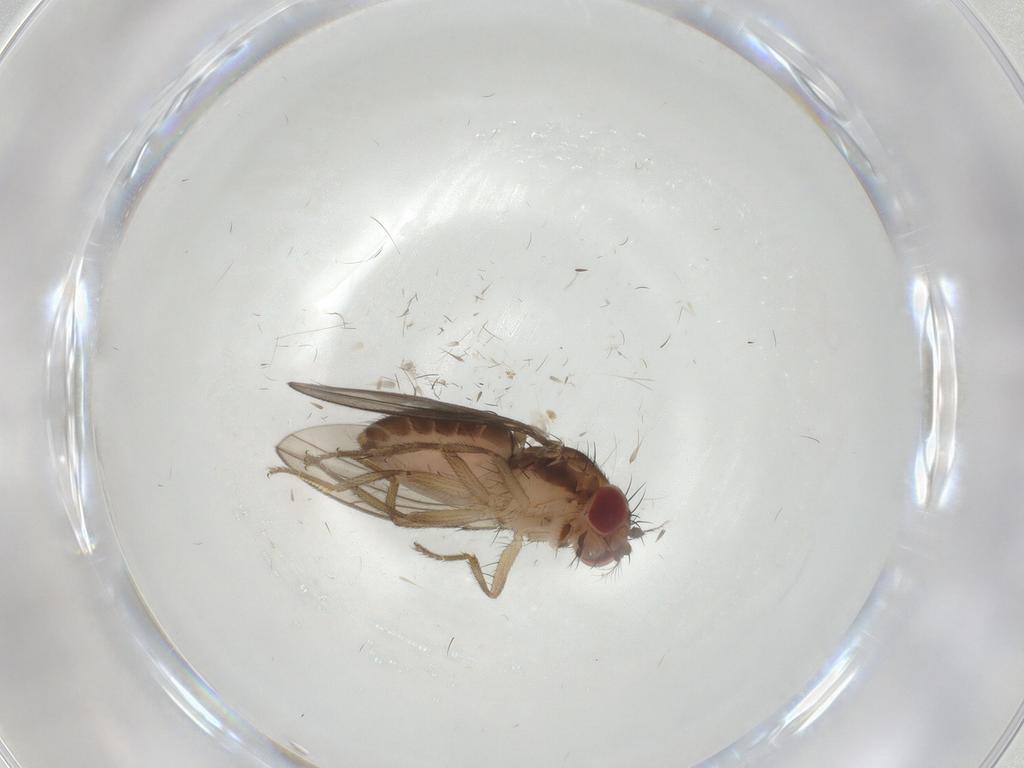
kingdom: Animalia
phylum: Arthropoda
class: Insecta
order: Diptera
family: Drosophilidae
